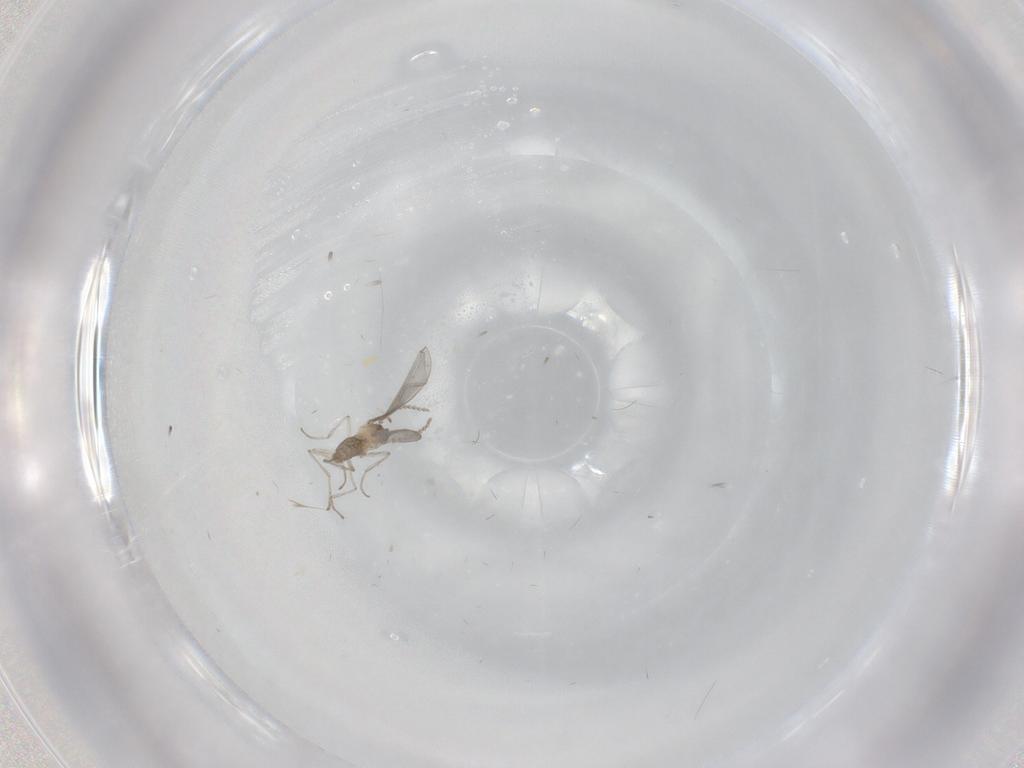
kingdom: Animalia
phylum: Arthropoda
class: Insecta
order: Diptera
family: Cecidomyiidae
